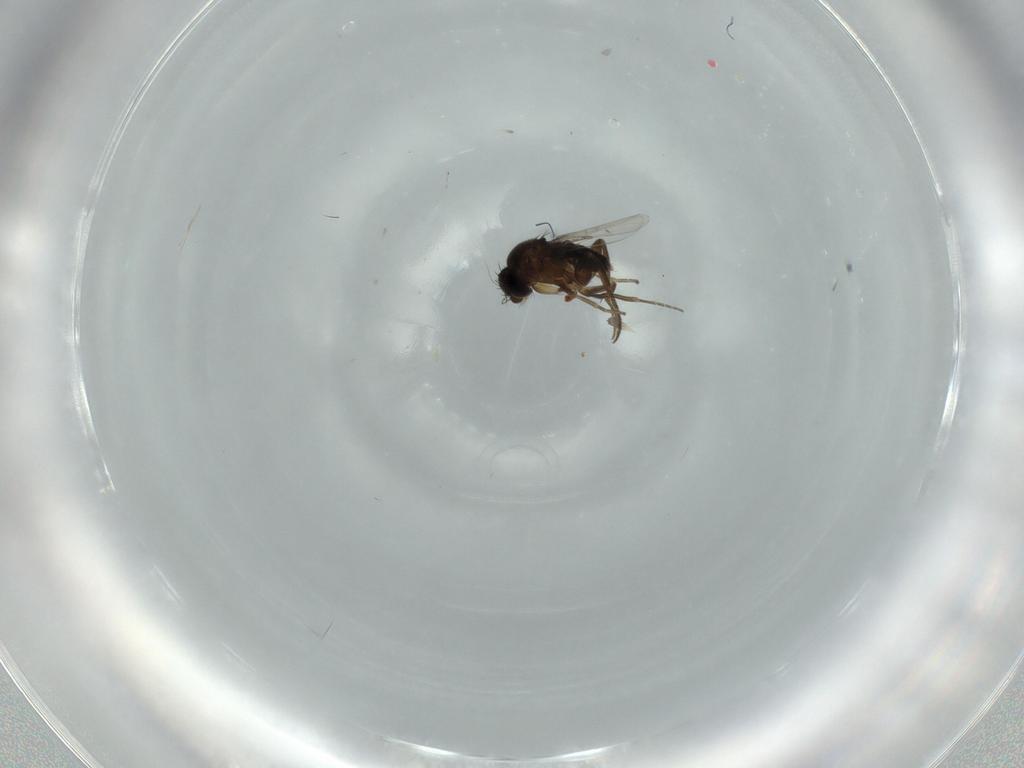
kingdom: Animalia
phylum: Arthropoda
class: Insecta
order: Diptera
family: Phoridae
